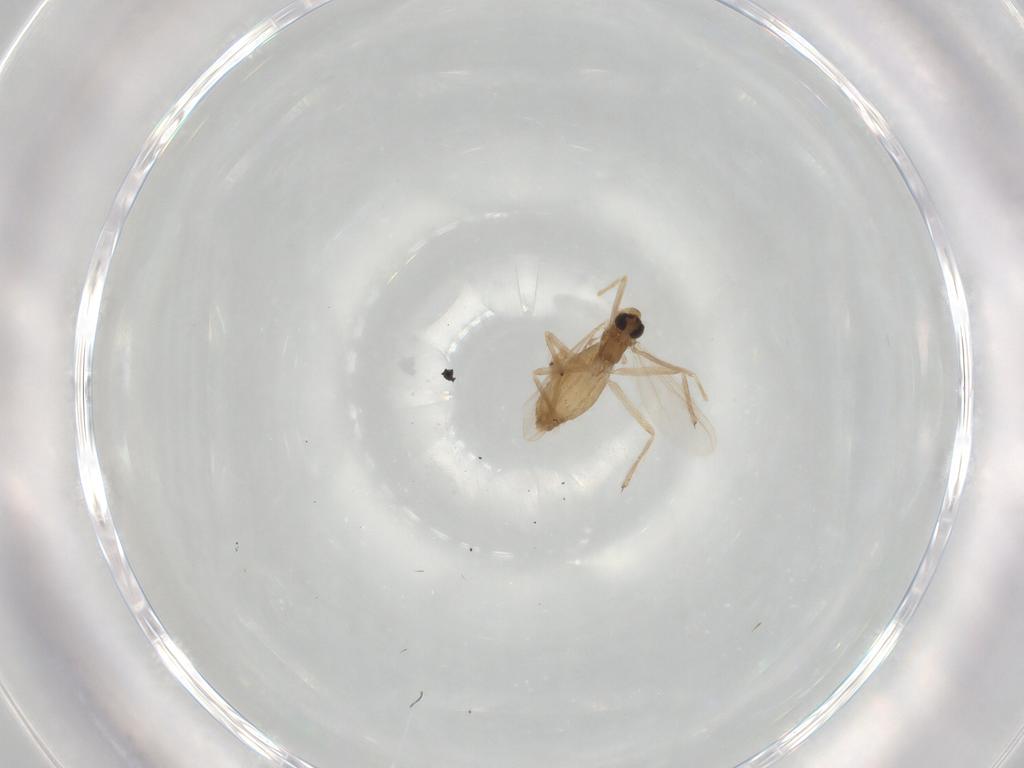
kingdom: Animalia
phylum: Arthropoda
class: Insecta
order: Diptera
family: Chironomidae
